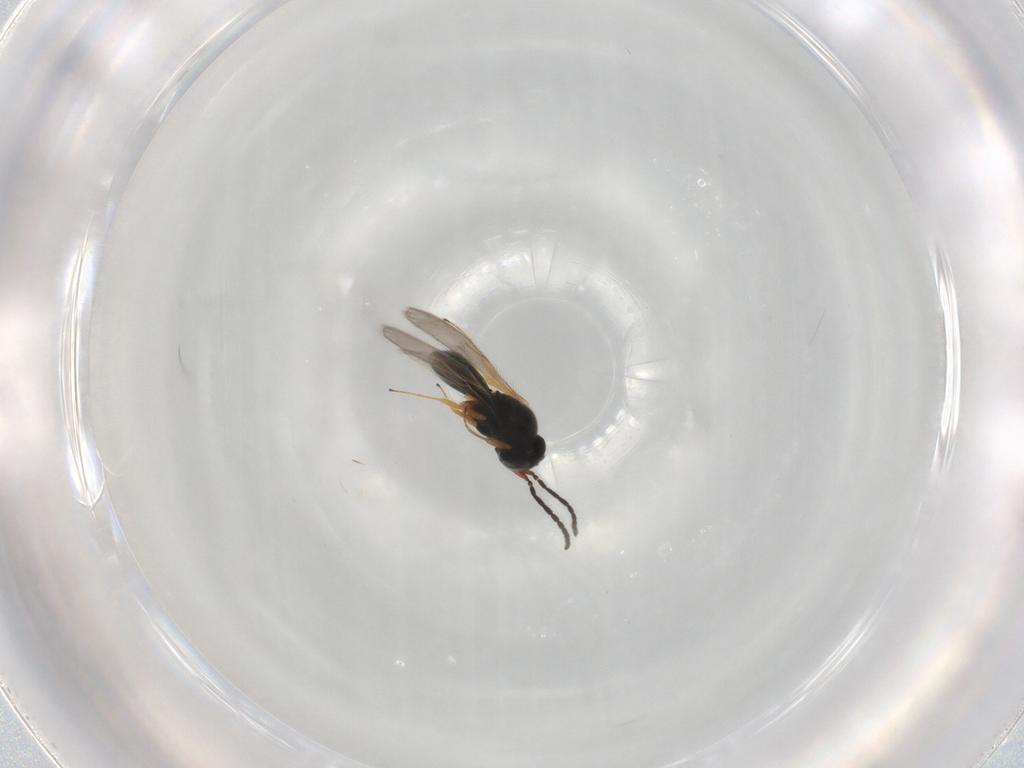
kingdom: Animalia
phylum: Arthropoda
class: Insecta
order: Hymenoptera
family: Scelionidae
